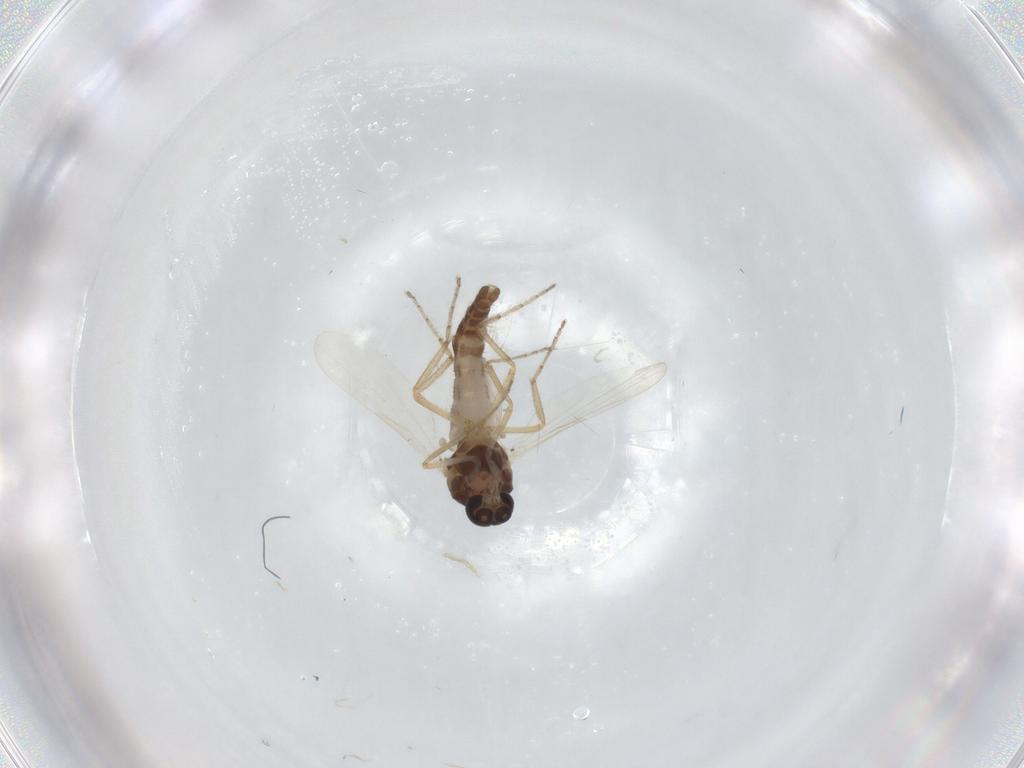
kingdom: Animalia
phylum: Arthropoda
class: Insecta
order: Diptera
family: Ceratopogonidae
